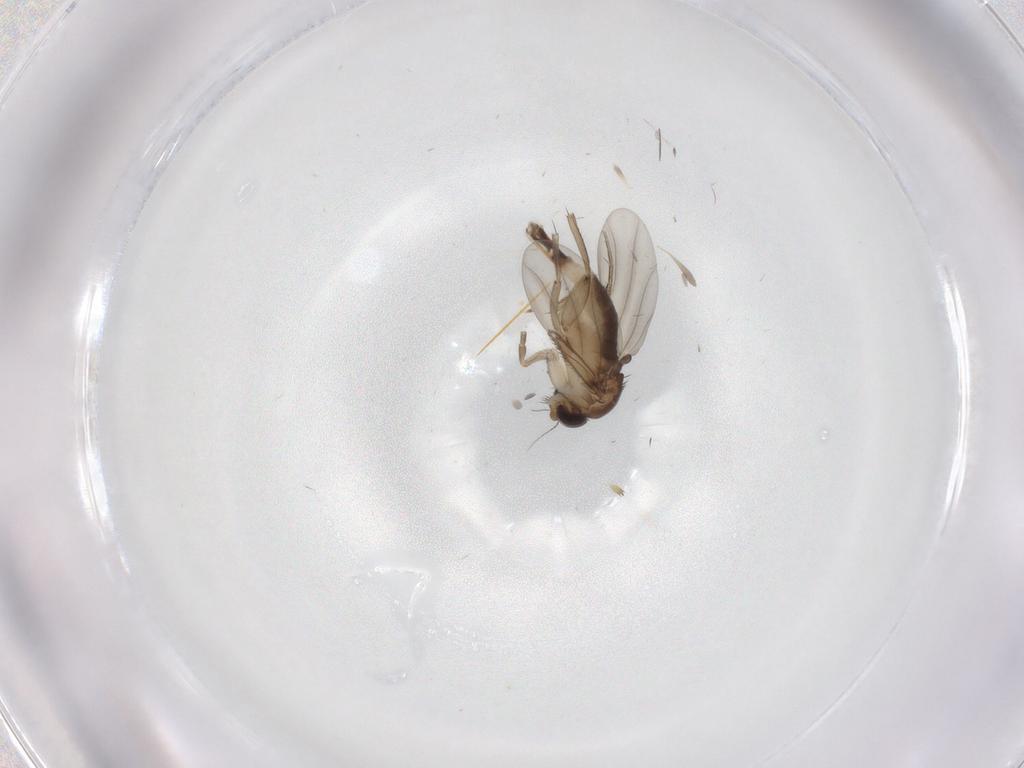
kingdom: Animalia
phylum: Arthropoda
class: Insecta
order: Diptera
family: Phoridae
